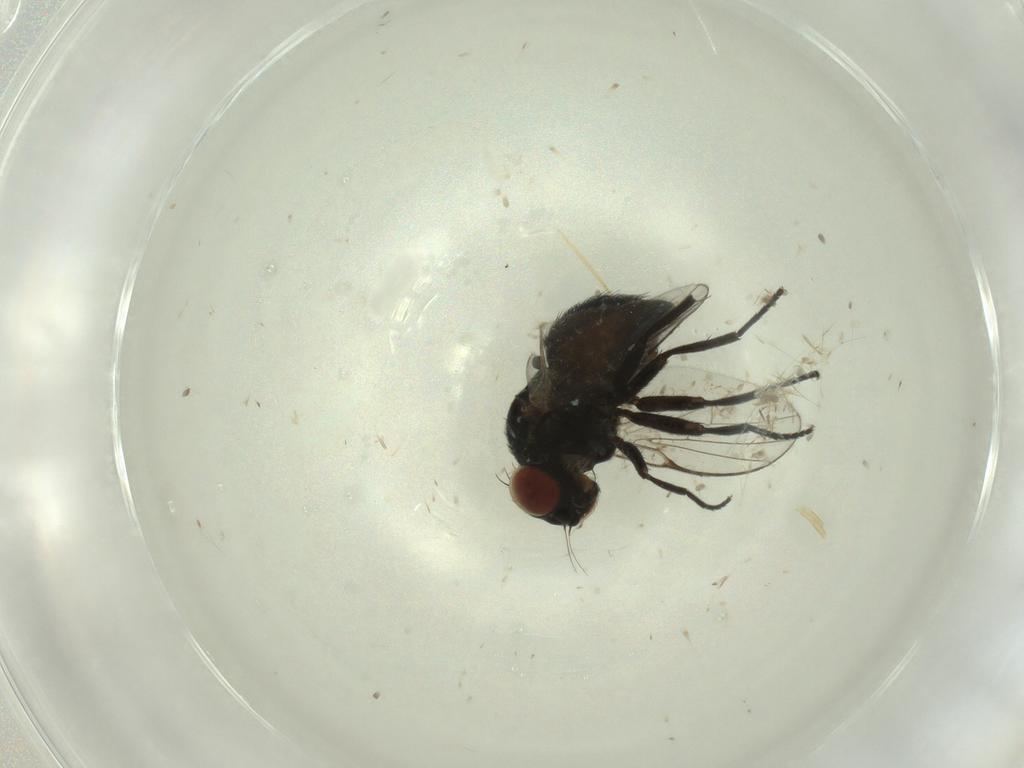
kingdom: Animalia
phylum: Arthropoda
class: Insecta
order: Diptera
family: Agromyzidae
